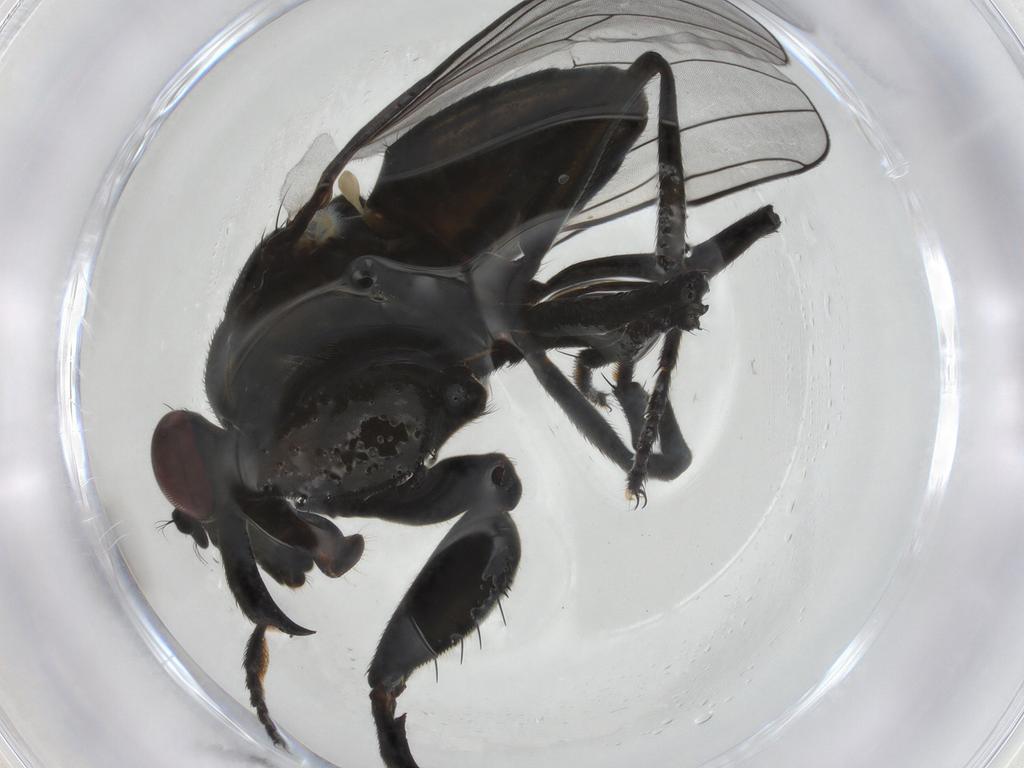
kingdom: Animalia
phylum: Arthropoda
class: Insecta
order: Diptera
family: Ephydridae
